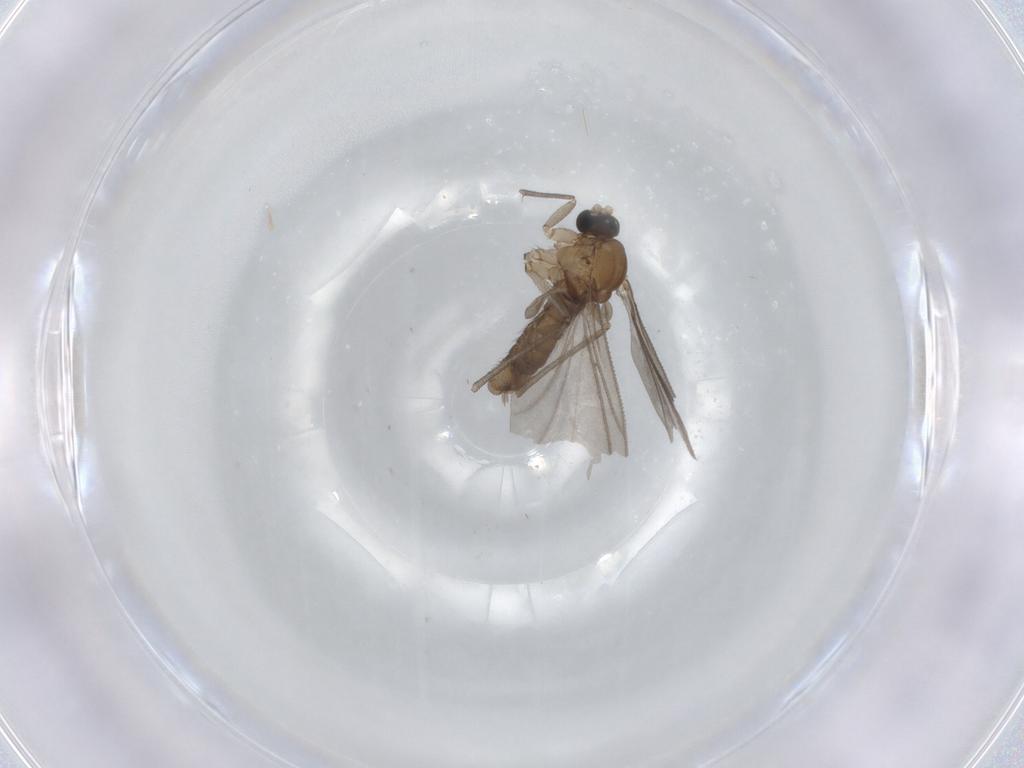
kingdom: Animalia
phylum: Arthropoda
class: Insecta
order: Diptera
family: Sciaridae
